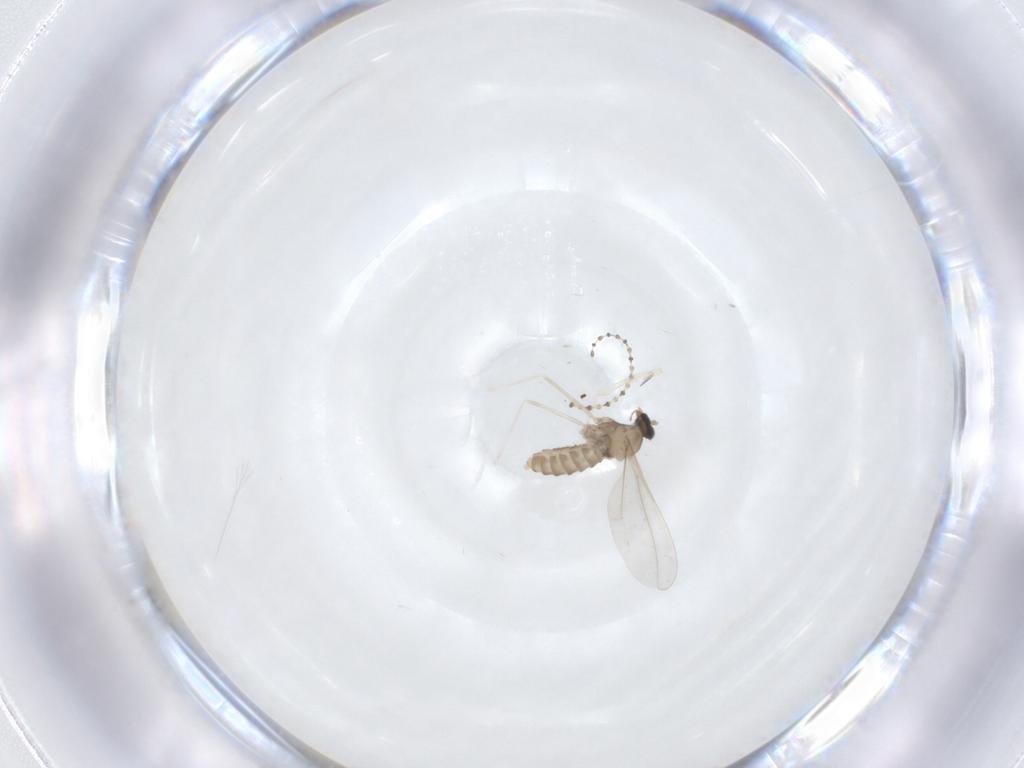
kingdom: Animalia
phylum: Arthropoda
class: Insecta
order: Diptera
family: Cecidomyiidae
